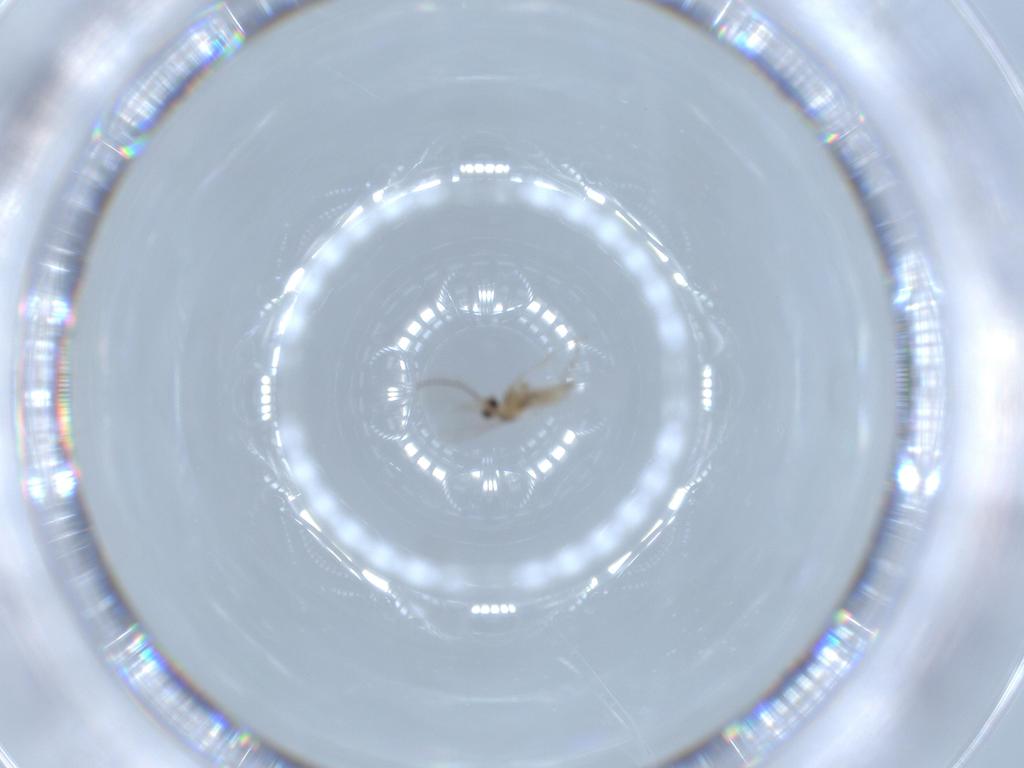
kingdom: Animalia
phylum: Arthropoda
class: Insecta
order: Diptera
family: Cecidomyiidae
